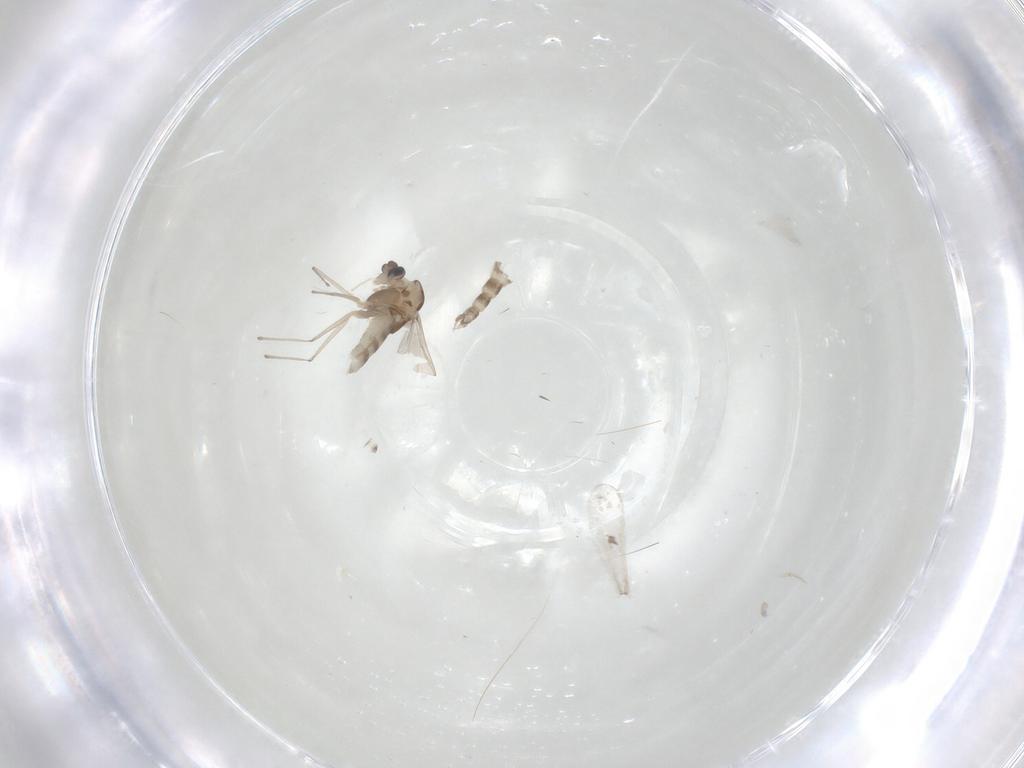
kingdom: Animalia
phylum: Arthropoda
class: Insecta
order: Diptera
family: Chironomidae
